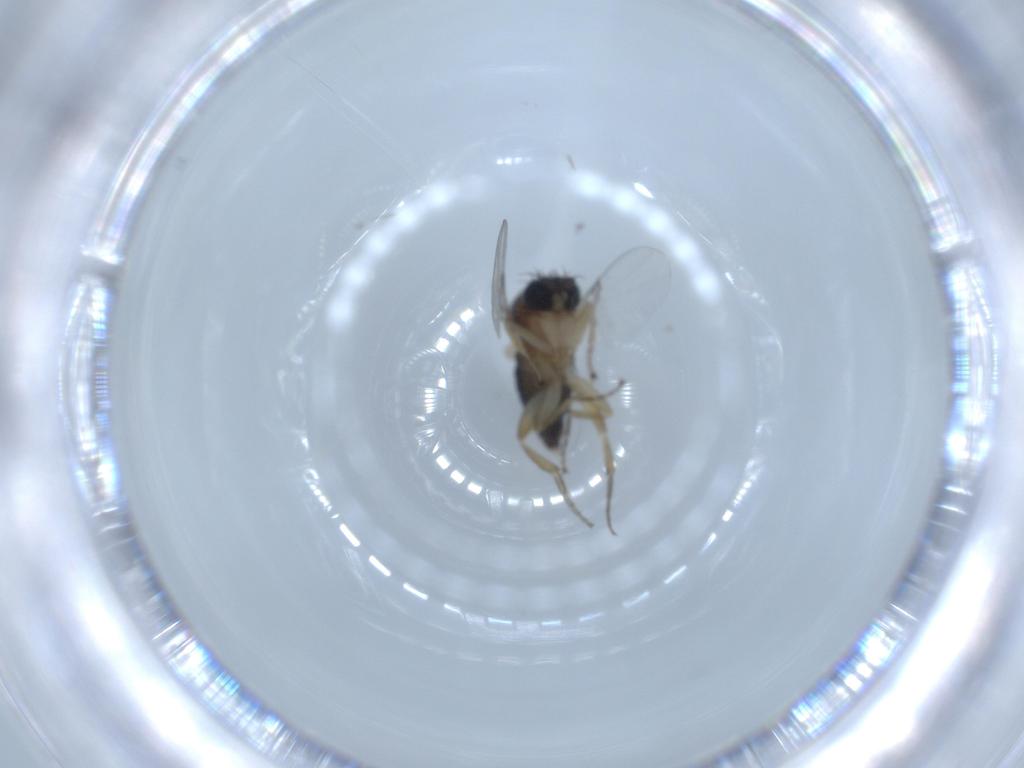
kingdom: Animalia
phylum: Arthropoda
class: Insecta
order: Diptera
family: Phoridae
